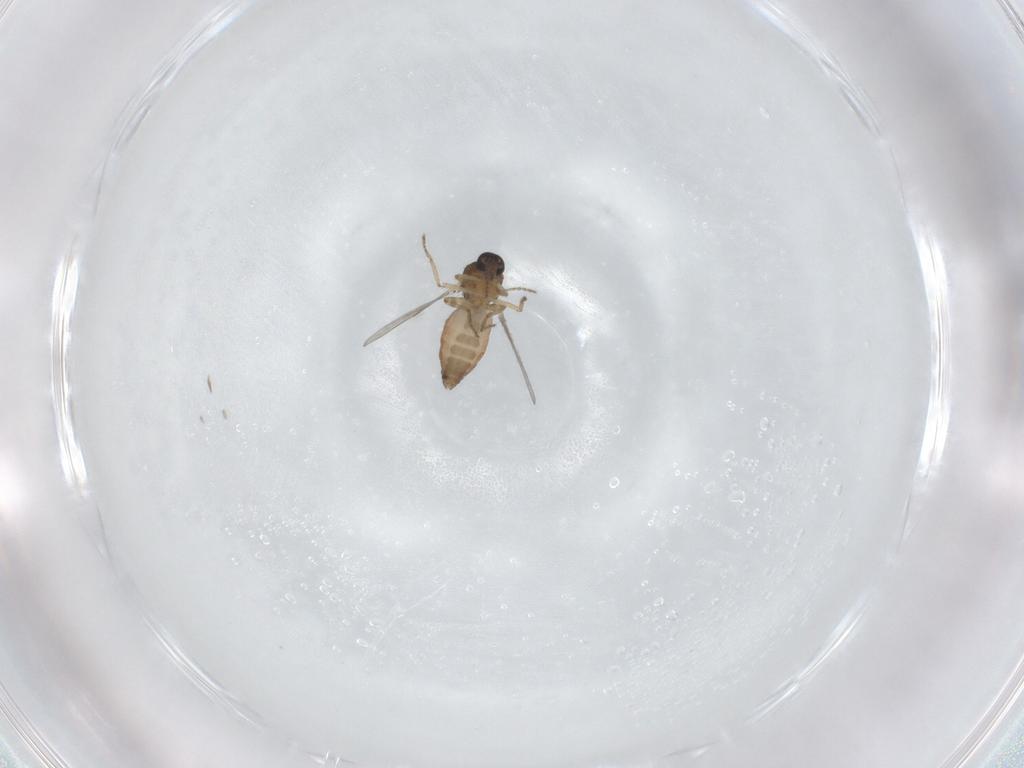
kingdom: Animalia
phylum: Arthropoda
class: Insecta
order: Diptera
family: Ceratopogonidae
